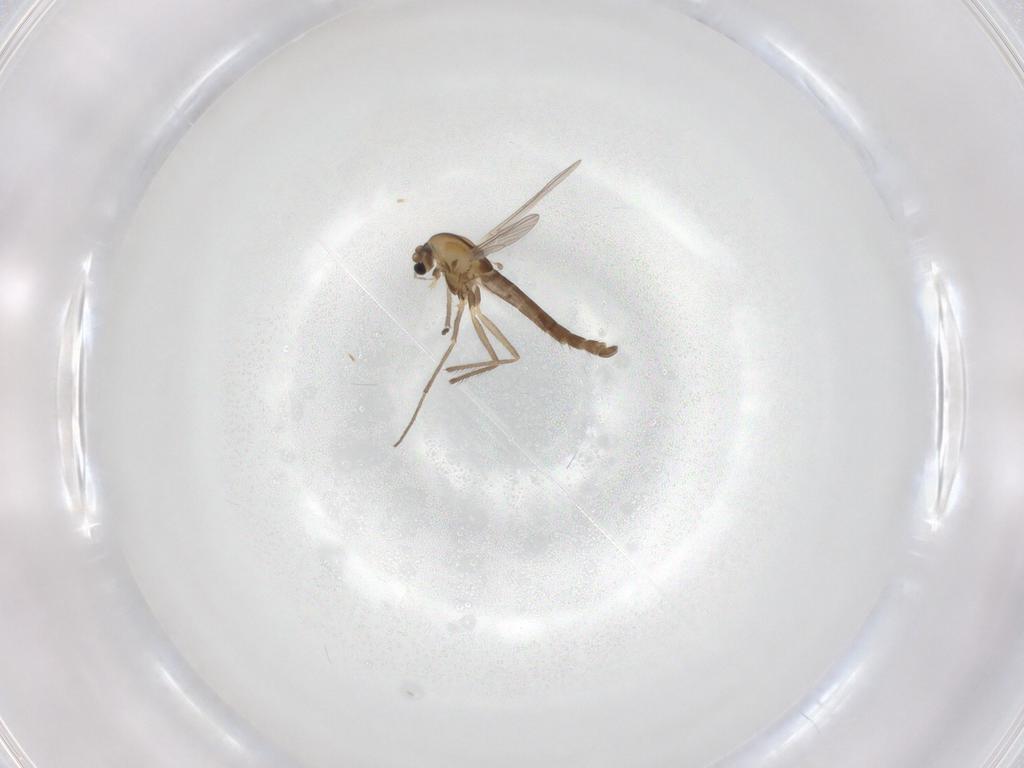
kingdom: Animalia
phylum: Arthropoda
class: Insecta
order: Diptera
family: Chironomidae
